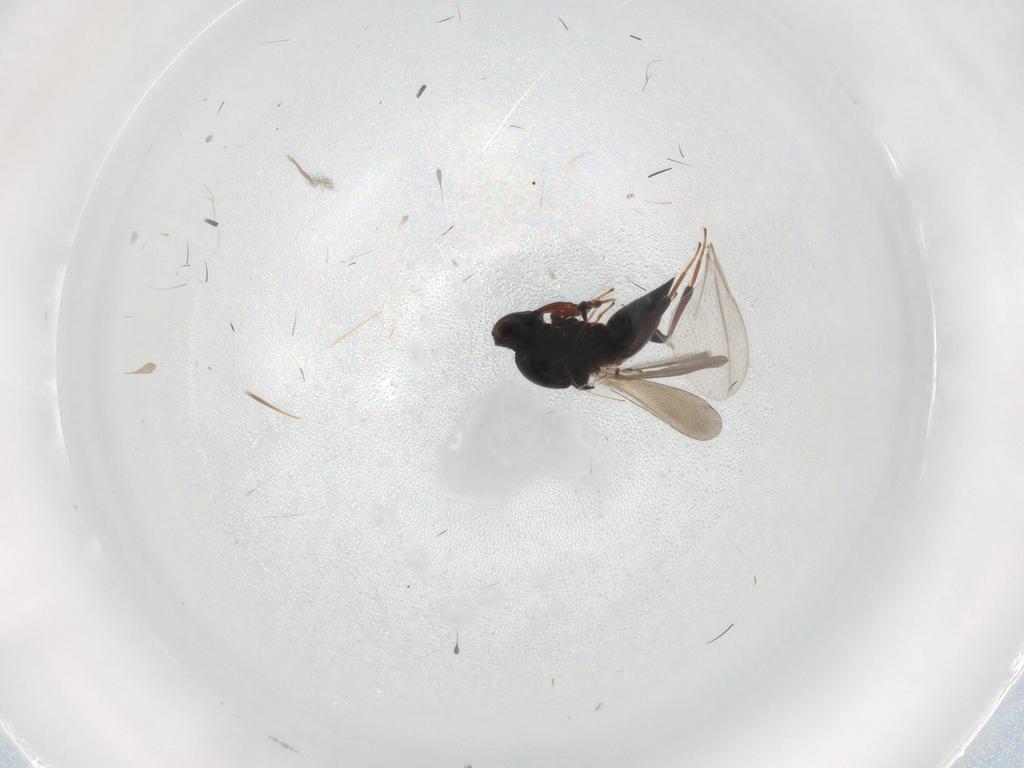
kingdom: Animalia
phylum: Arthropoda
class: Insecta
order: Hymenoptera
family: Platygastridae
